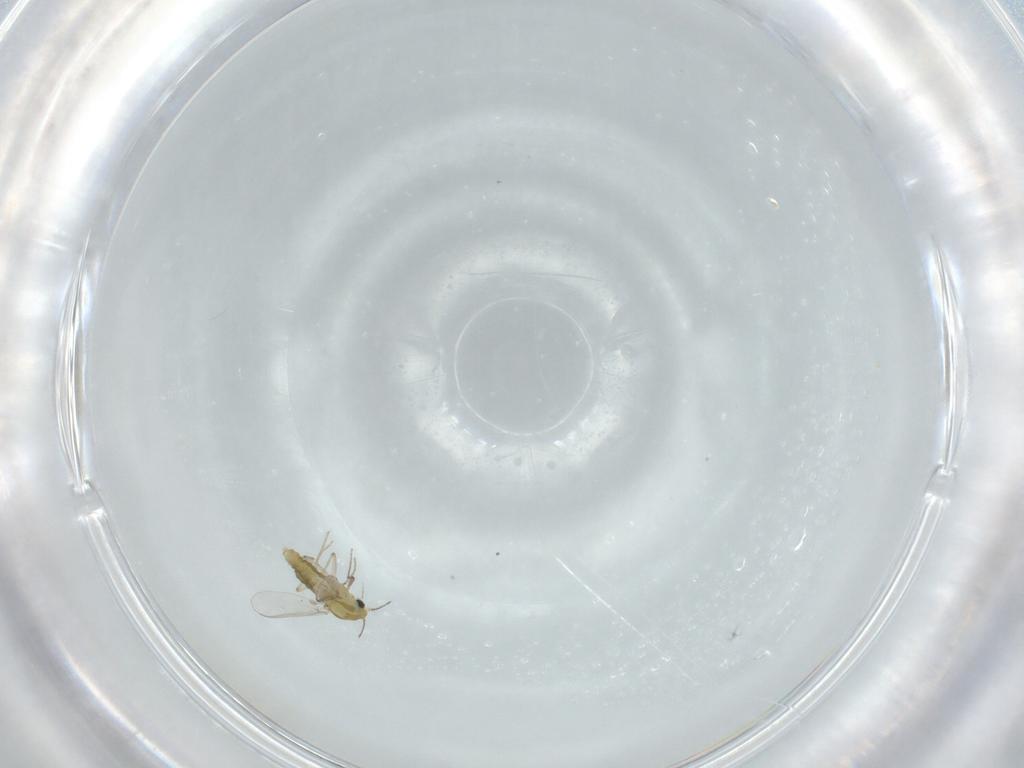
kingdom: Animalia
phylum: Arthropoda
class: Insecta
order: Diptera
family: Chironomidae
